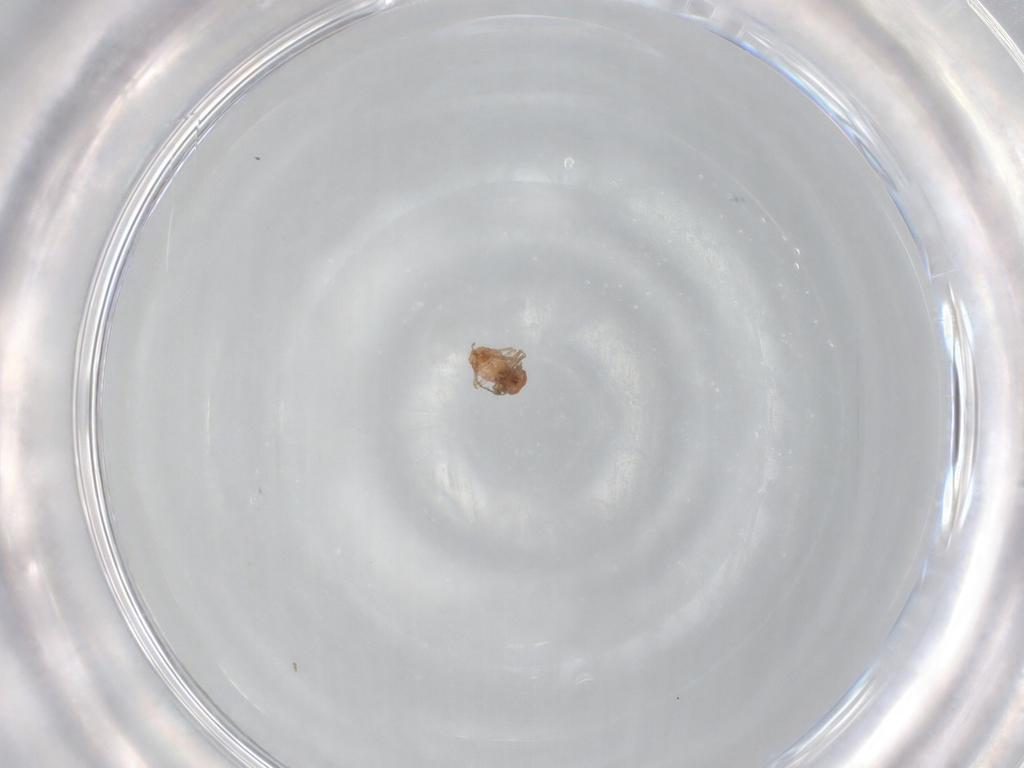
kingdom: Animalia
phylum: Arthropoda
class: Insecta
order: Psocodea
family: Caeciliusidae
